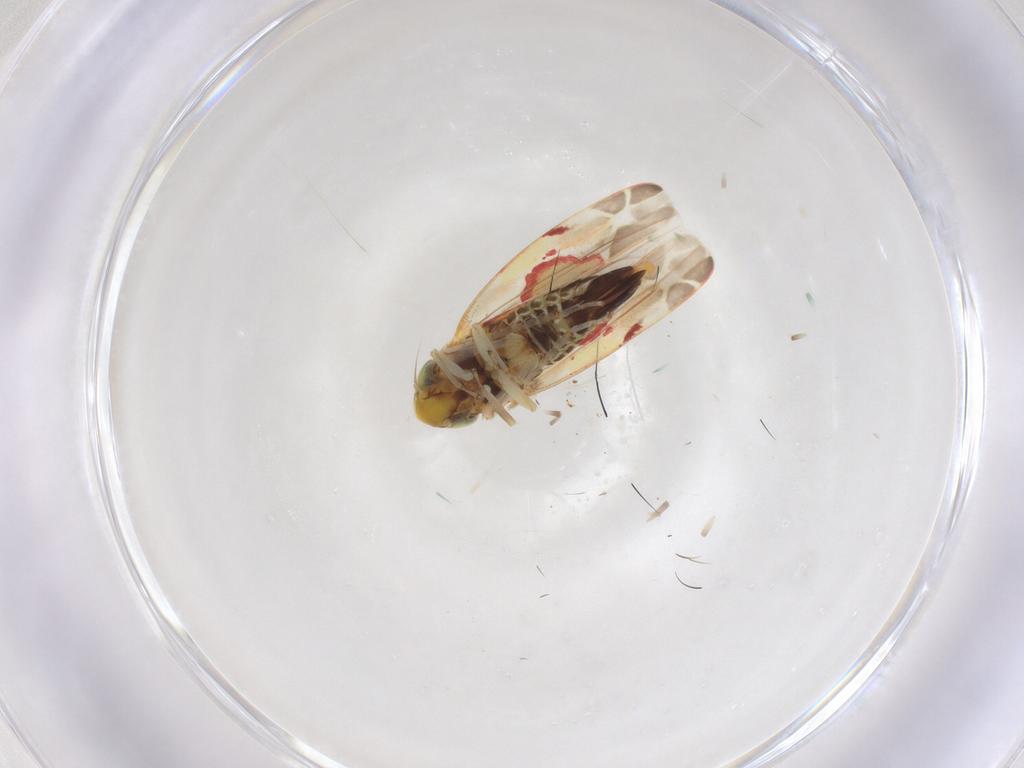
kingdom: Animalia
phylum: Arthropoda
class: Insecta
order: Hemiptera
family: Cicadellidae
